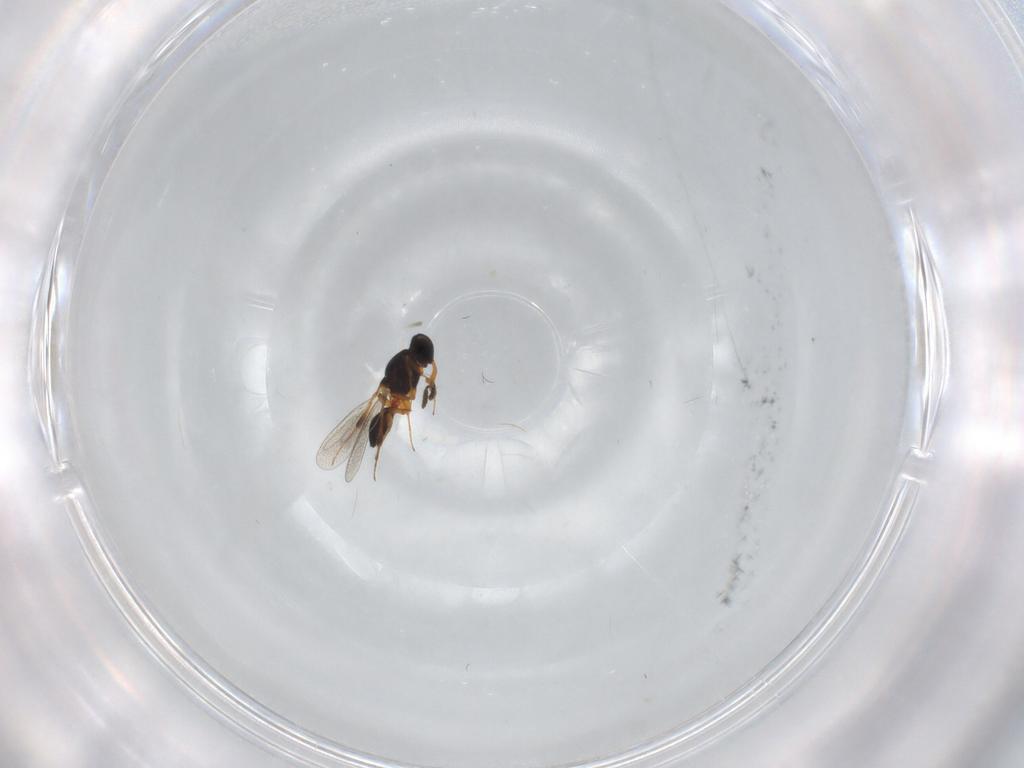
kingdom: Animalia
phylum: Arthropoda
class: Insecta
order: Hymenoptera
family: Platygastridae
